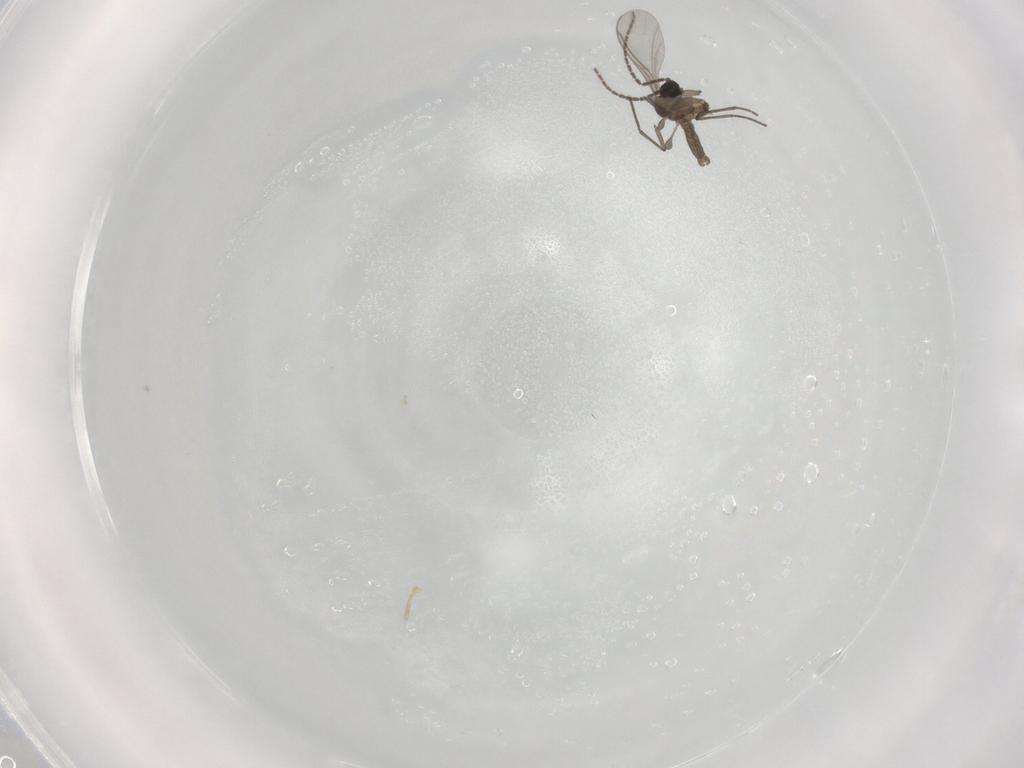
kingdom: Animalia
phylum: Arthropoda
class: Insecta
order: Diptera
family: Sciaridae
